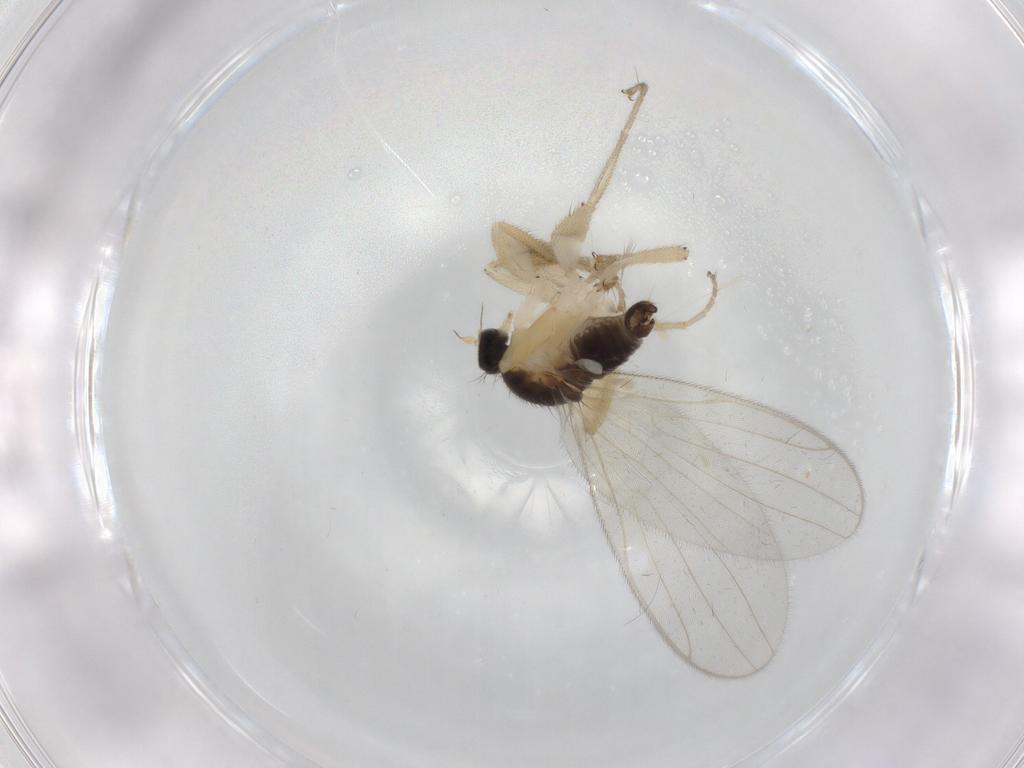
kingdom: Animalia
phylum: Arthropoda
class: Insecta
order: Diptera
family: Hybotidae
